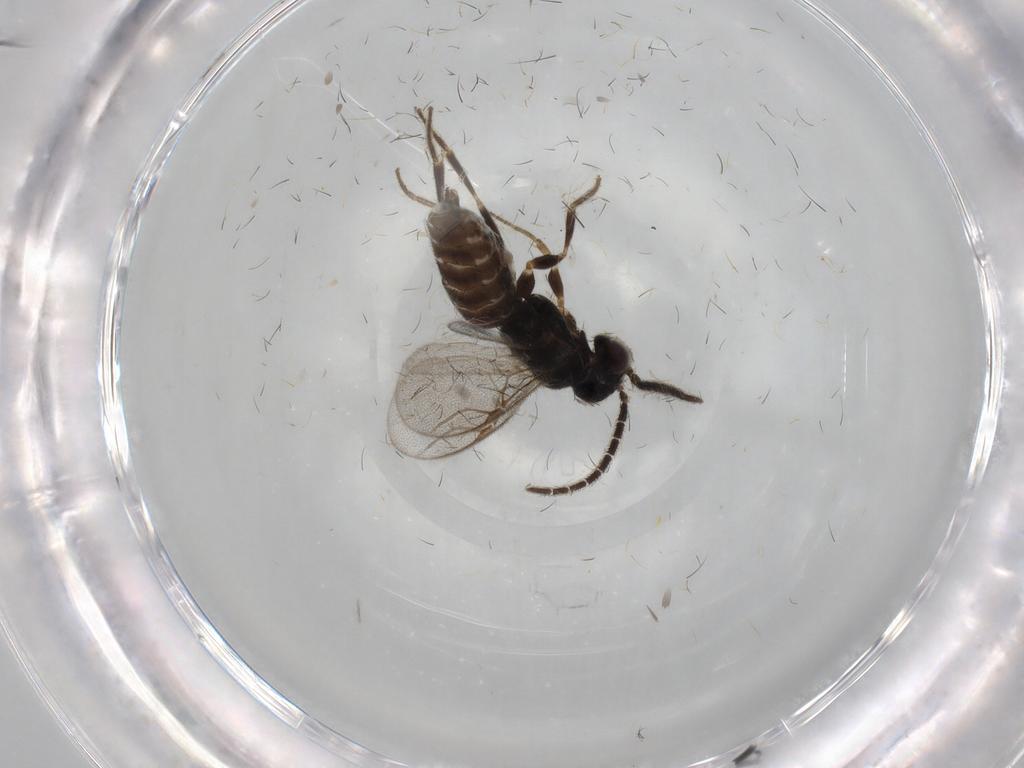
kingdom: Animalia
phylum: Arthropoda
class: Insecta
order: Hymenoptera
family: Dryinidae
